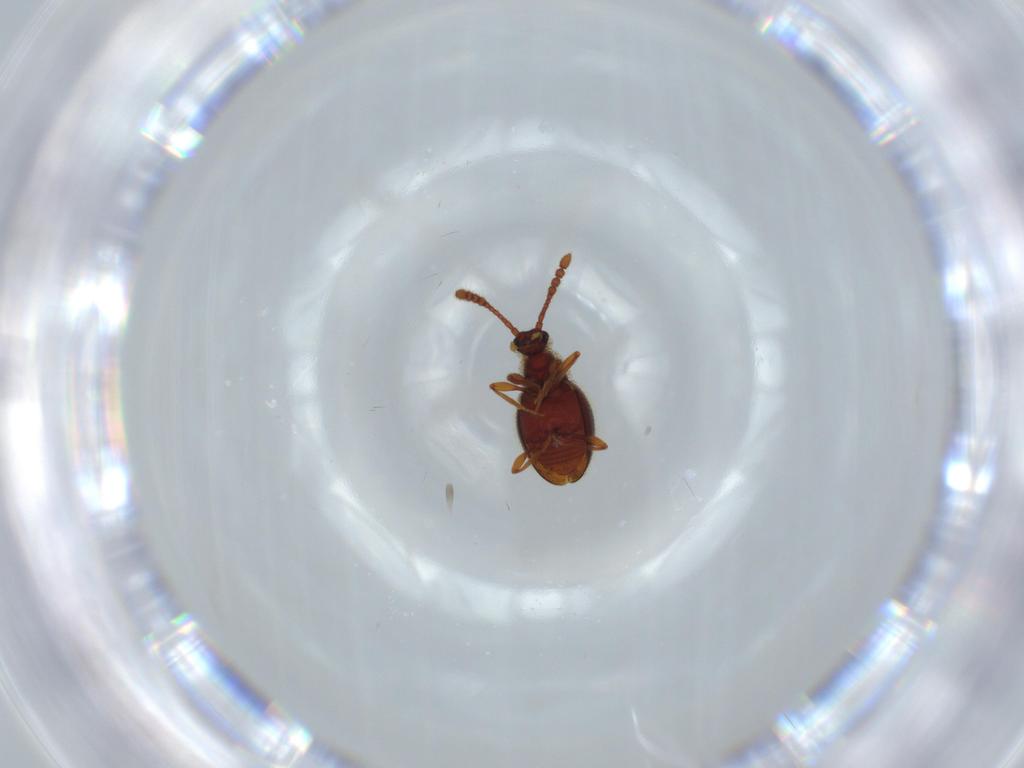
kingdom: Animalia
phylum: Arthropoda
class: Insecta
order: Coleoptera
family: Staphylinidae
